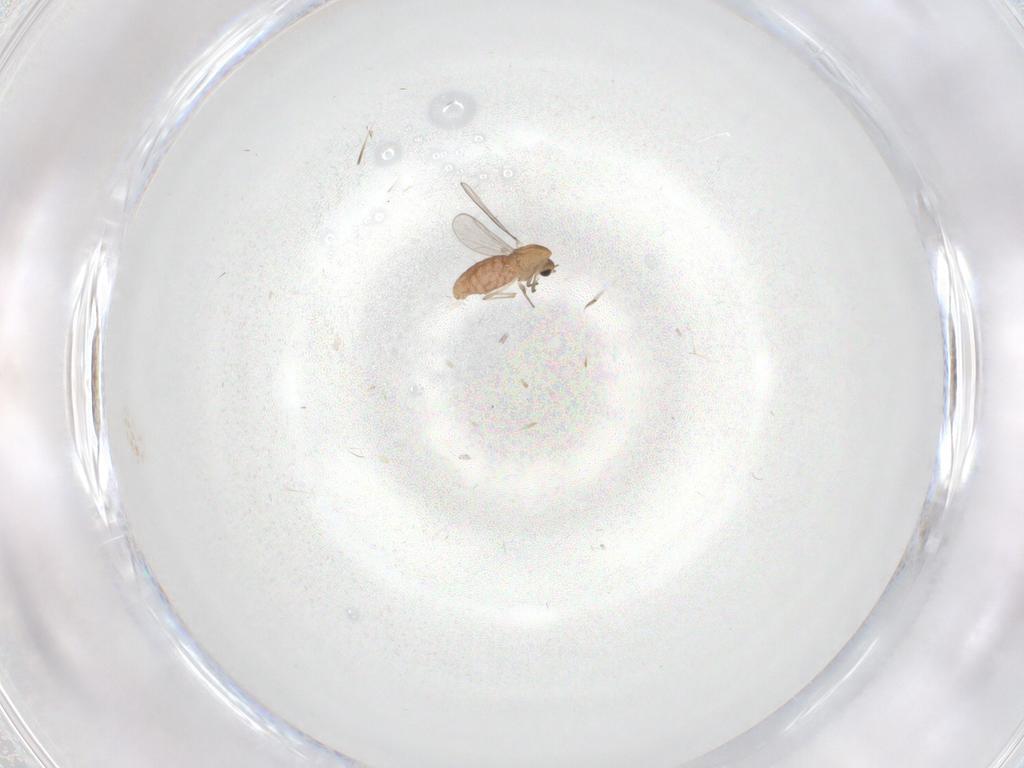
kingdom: Animalia
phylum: Arthropoda
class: Insecta
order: Diptera
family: Chironomidae
